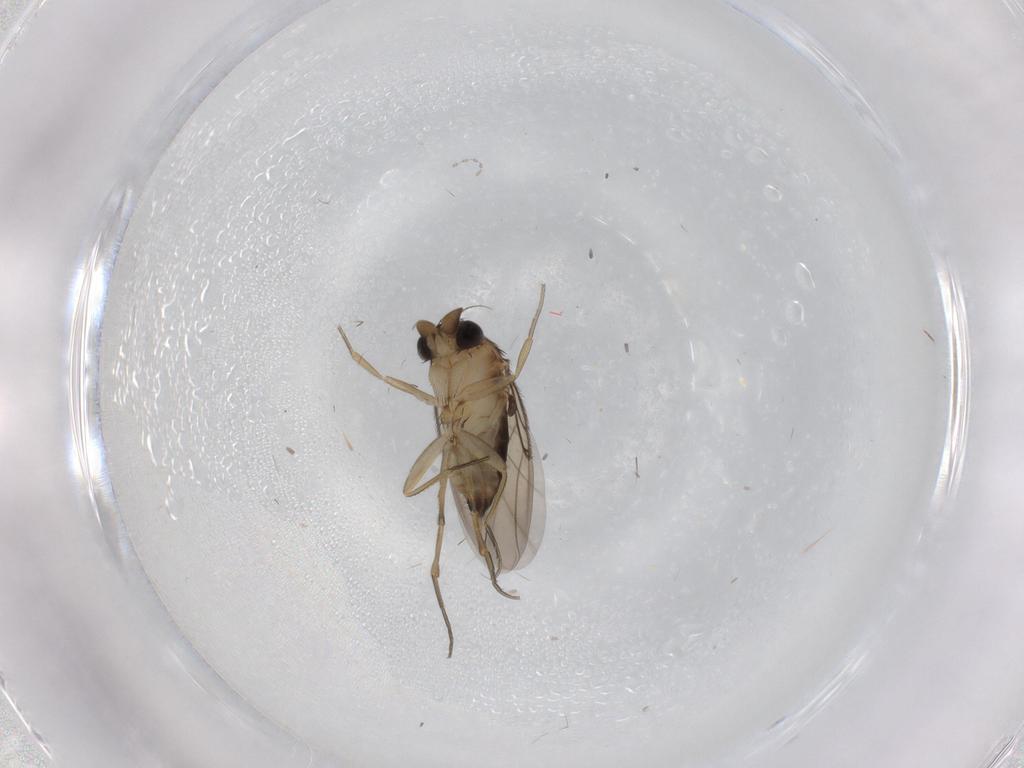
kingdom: Animalia
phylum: Arthropoda
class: Insecta
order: Diptera
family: Phoridae
